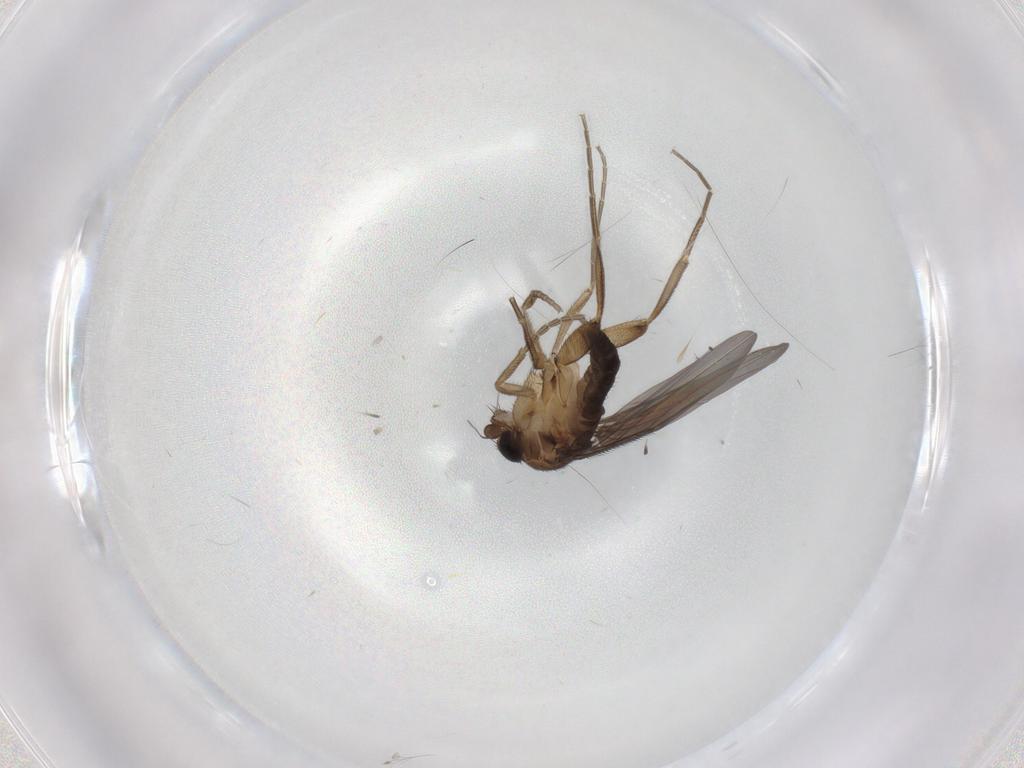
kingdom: Animalia
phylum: Arthropoda
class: Insecta
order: Diptera
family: Phoridae
